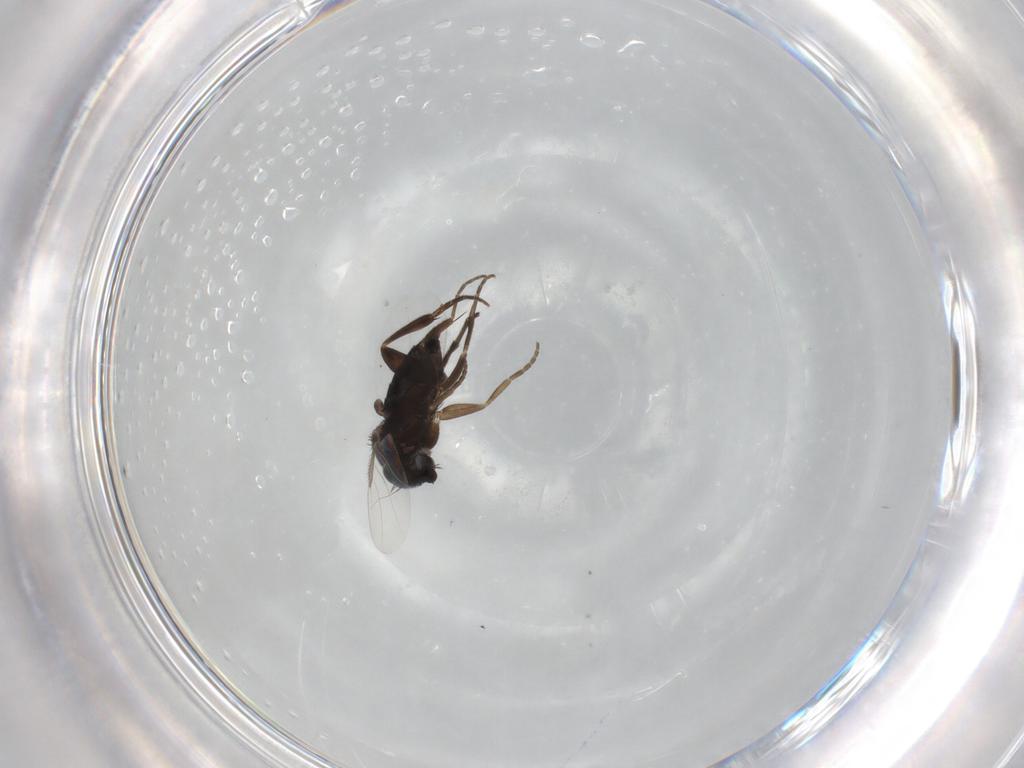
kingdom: Animalia
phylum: Arthropoda
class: Insecta
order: Diptera
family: Phoridae
